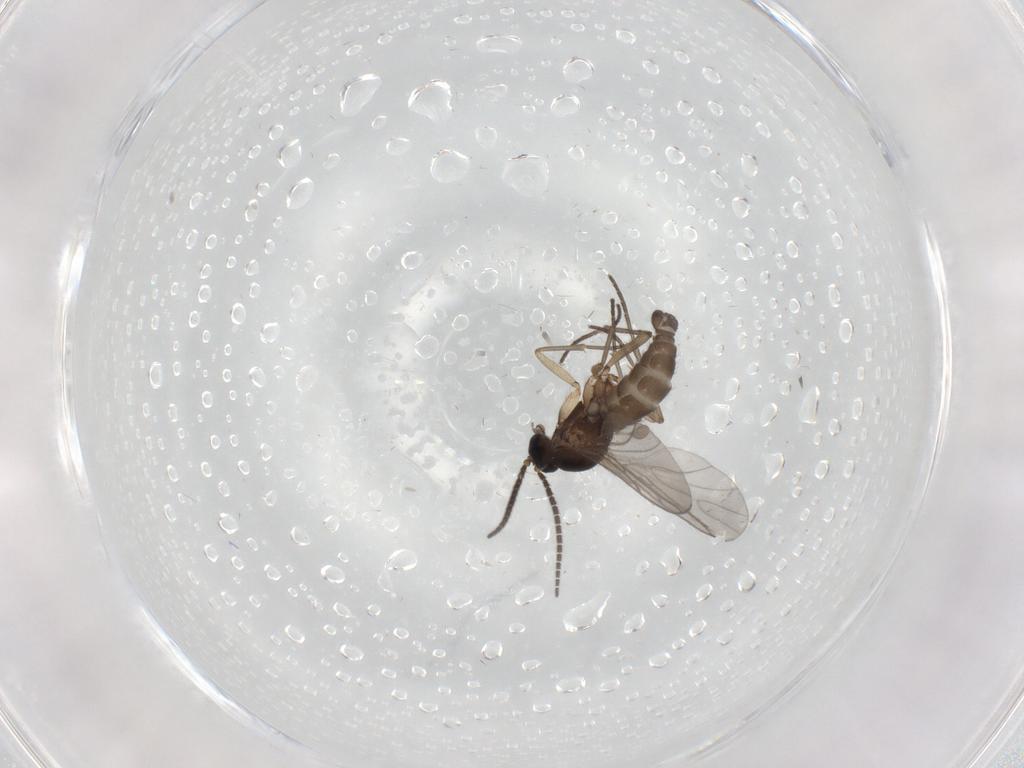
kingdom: Animalia
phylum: Arthropoda
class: Insecta
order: Diptera
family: Sciaridae
